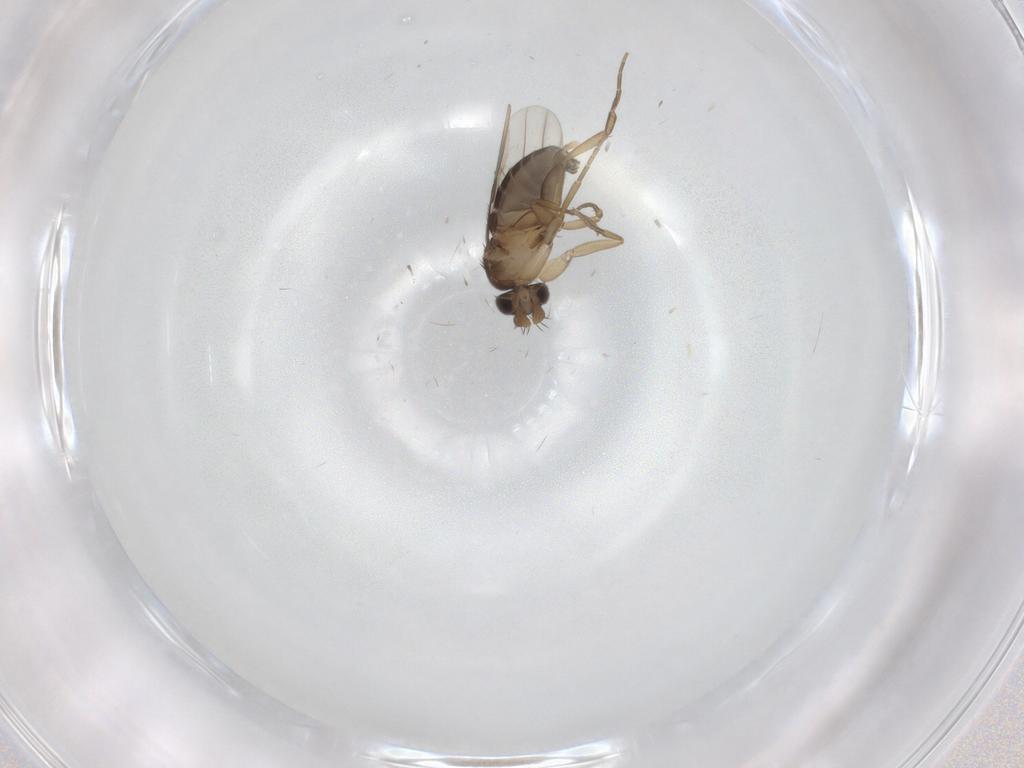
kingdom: Animalia
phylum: Arthropoda
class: Insecta
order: Diptera
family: Phoridae
